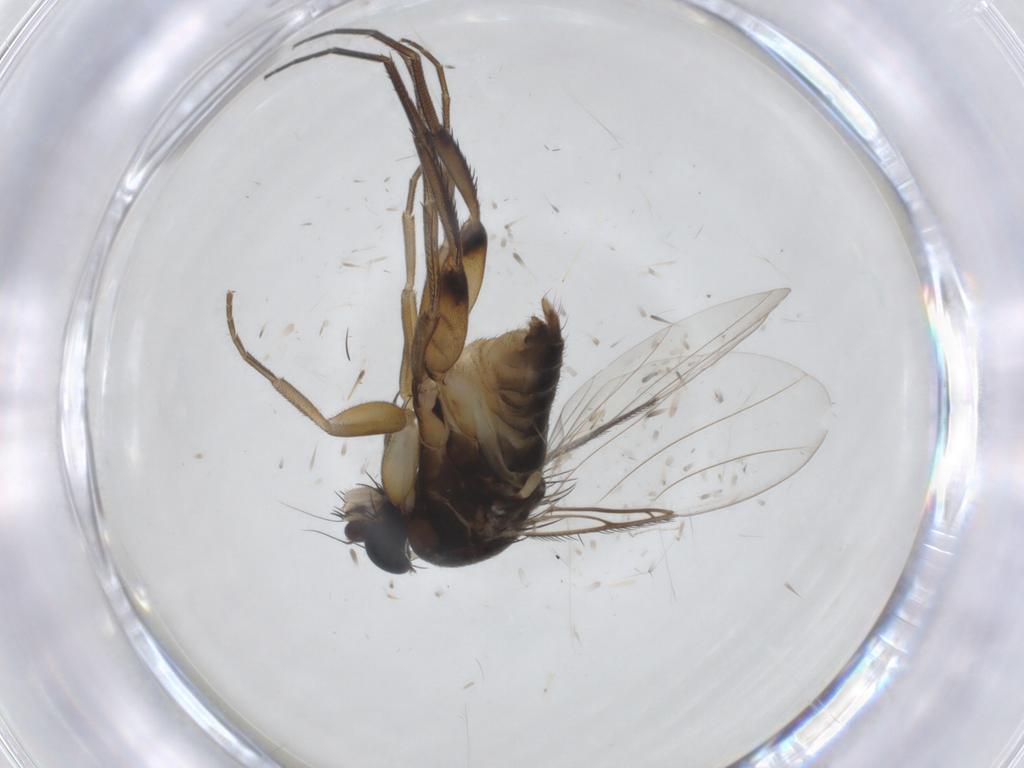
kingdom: Animalia
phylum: Arthropoda
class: Insecta
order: Diptera
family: Phoridae
